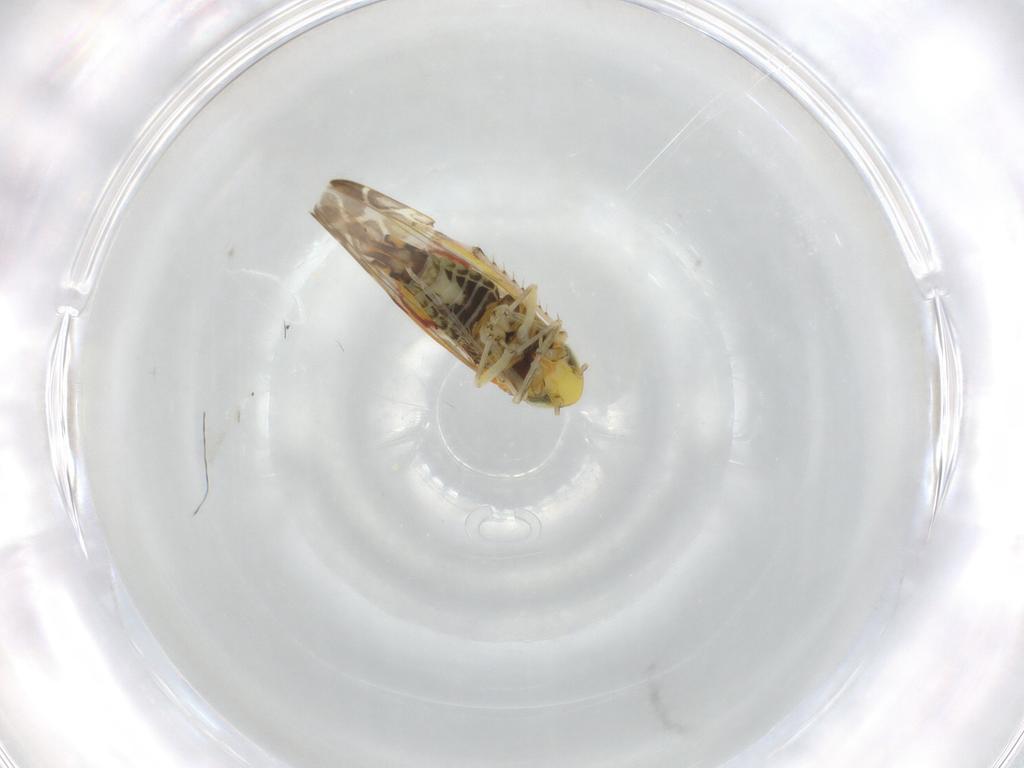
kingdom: Animalia
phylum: Arthropoda
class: Insecta
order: Hemiptera
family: Cicadellidae
